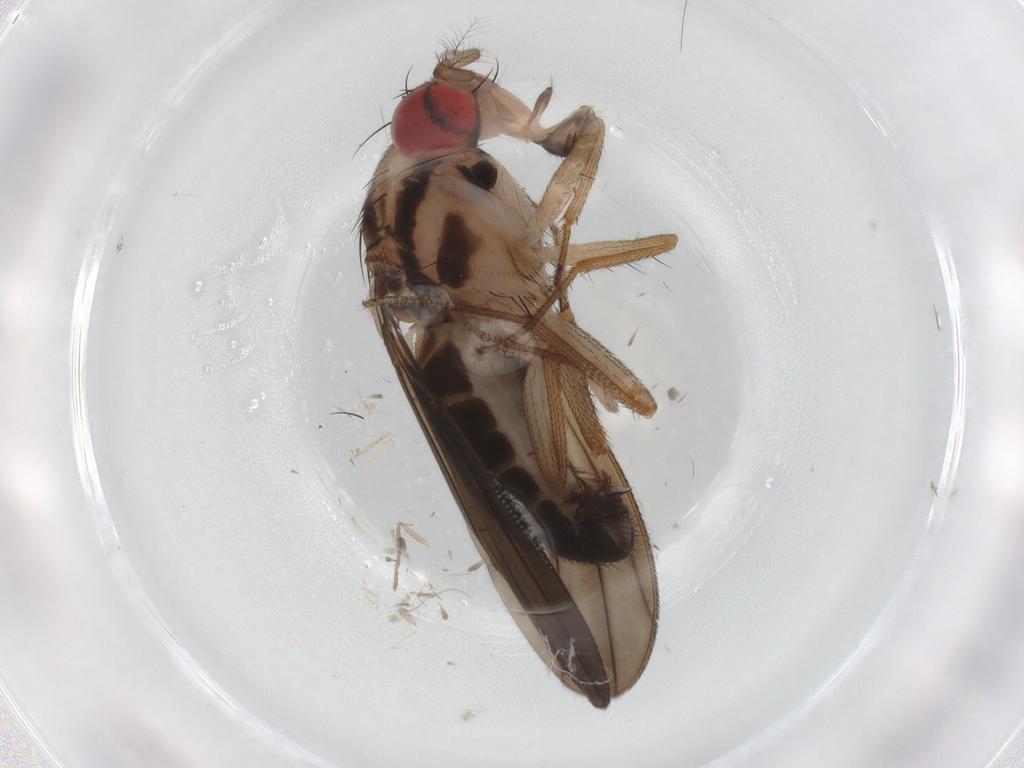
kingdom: Animalia
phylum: Arthropoda
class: Insecta
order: Diptera
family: Drosophilidae
